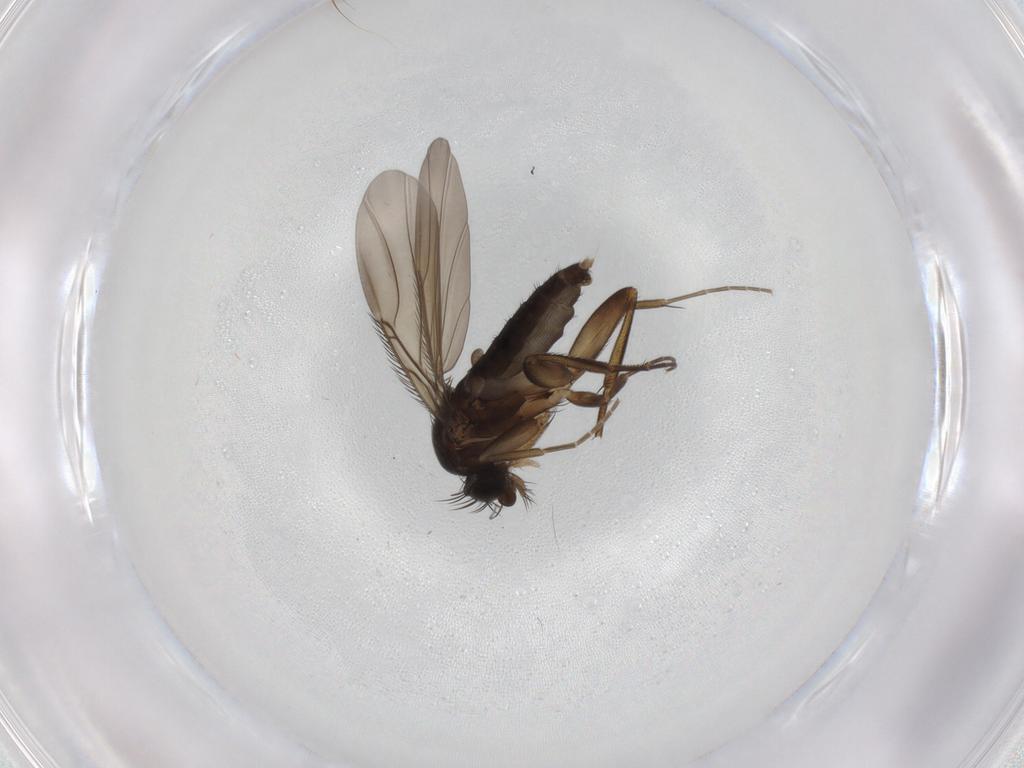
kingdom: Animalia
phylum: Arthropoda
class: Insecta
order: Diptera
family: Phoridae
